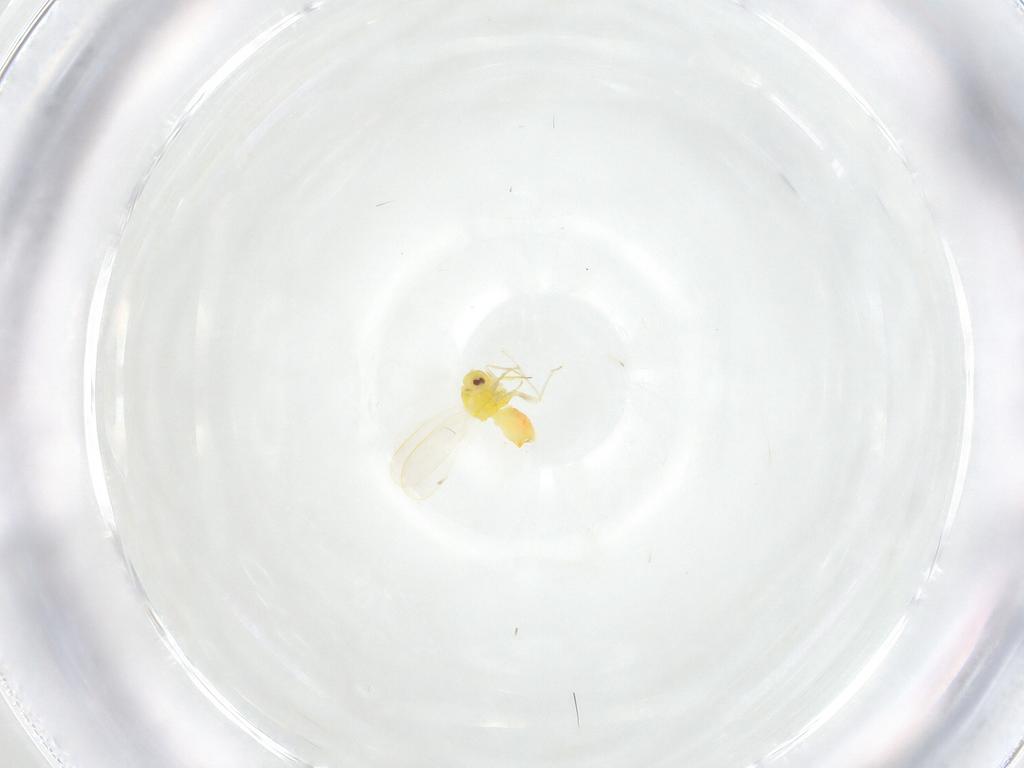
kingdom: Animalia
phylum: Arthropoda
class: Insecta
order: Hemiptera
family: Aleyrodidae
